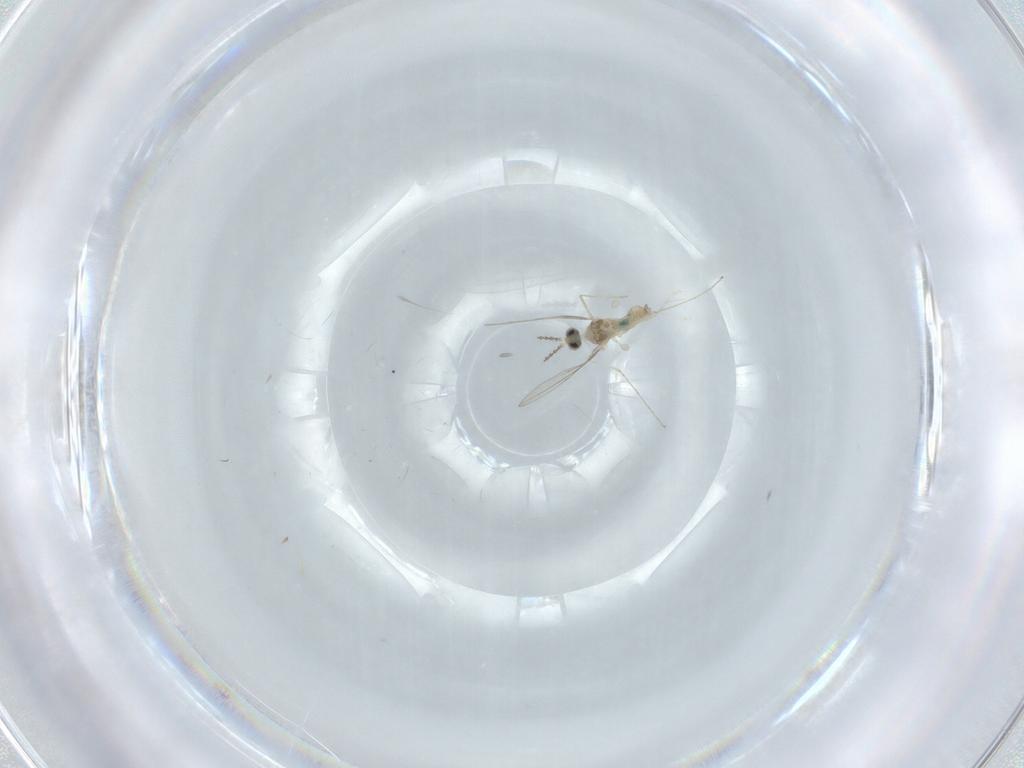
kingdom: Animalia
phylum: Arthropoda
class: Insecta
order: Diptera
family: Cecidomyiidae
